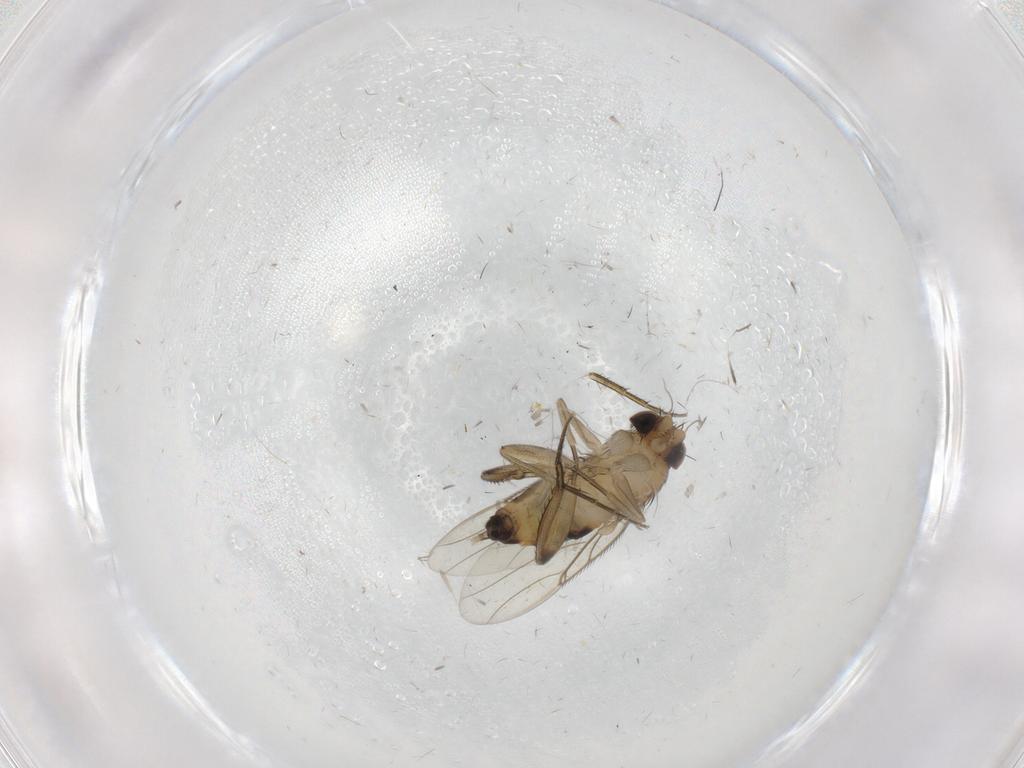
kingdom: Animalia
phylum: Arthropoda
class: Insecta
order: Diptera
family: Phoridae
